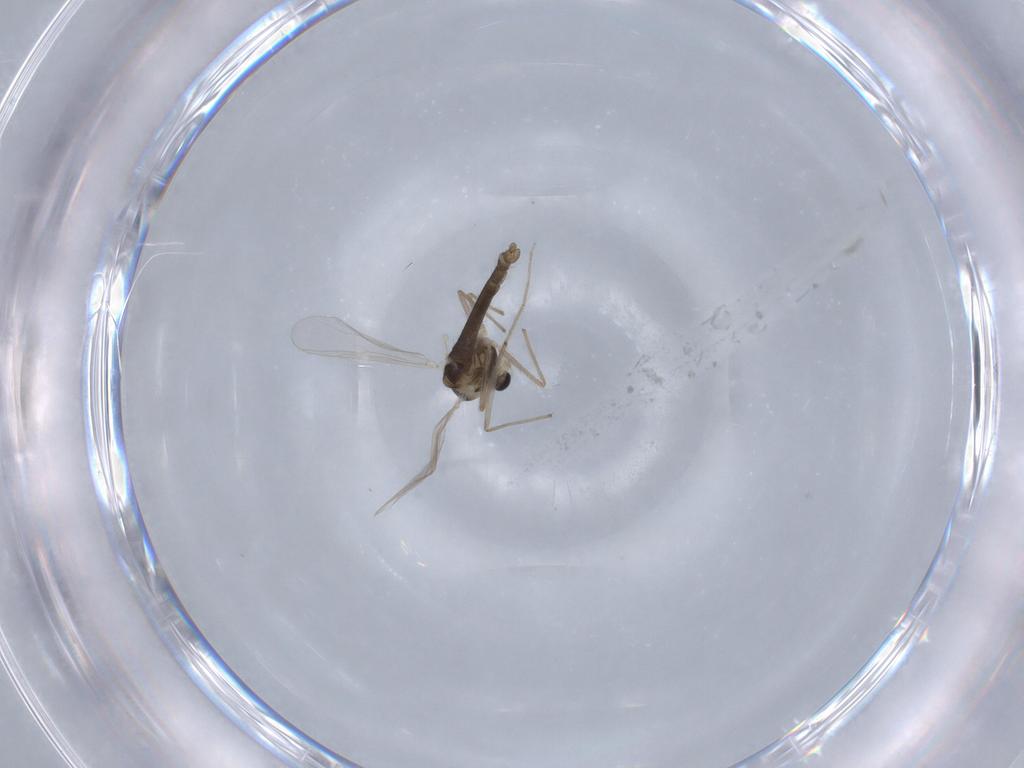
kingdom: Animalia
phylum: Arthropoda
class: Insecta
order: Diptera
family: Chironomidae
